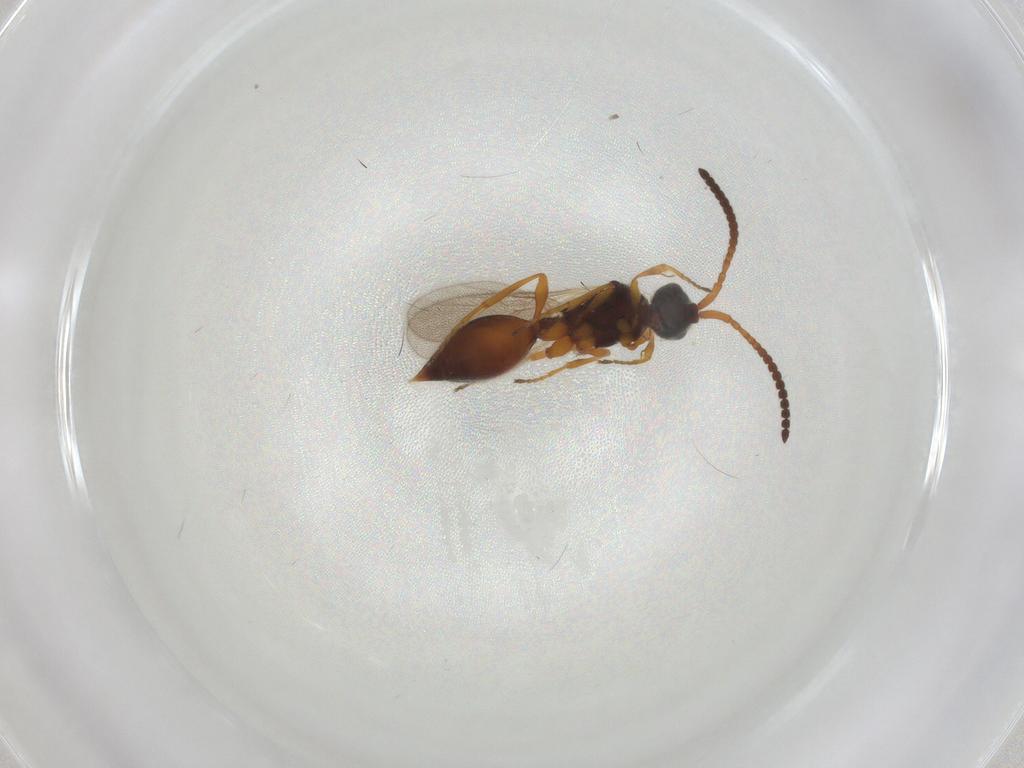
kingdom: Animalia
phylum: Arthropoda
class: Insecta
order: Hymenoptera
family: Diapriidae
